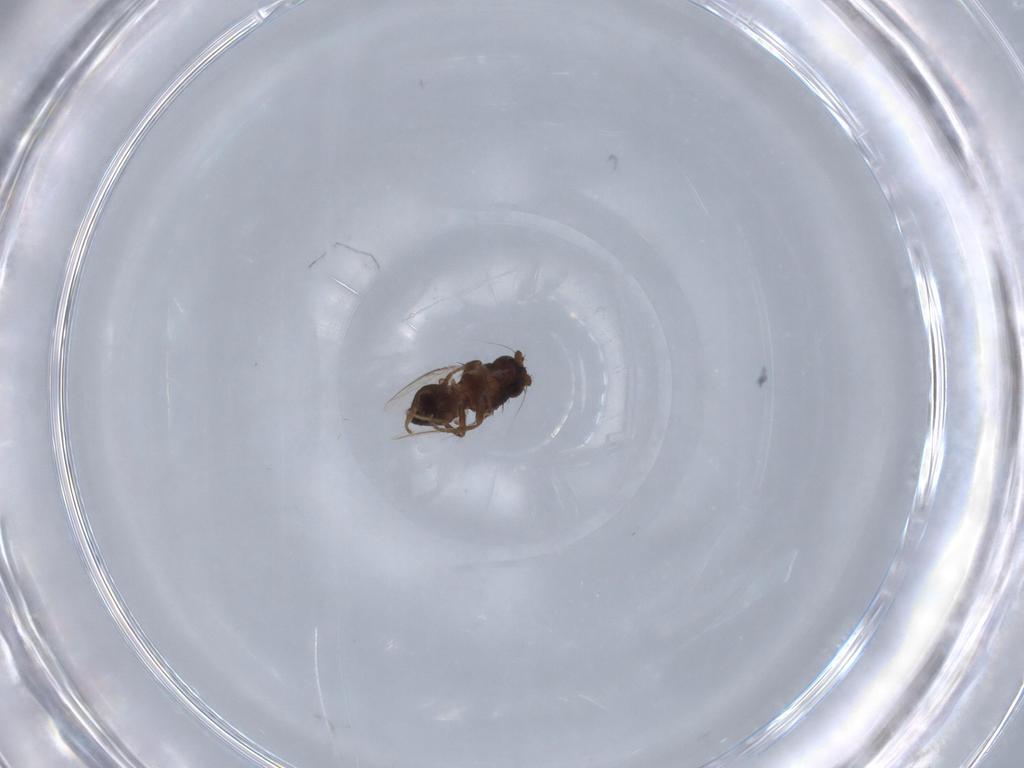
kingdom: Animalia
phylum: Arthropoda
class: Insecta
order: Diptera
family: Sphaeroceridae
